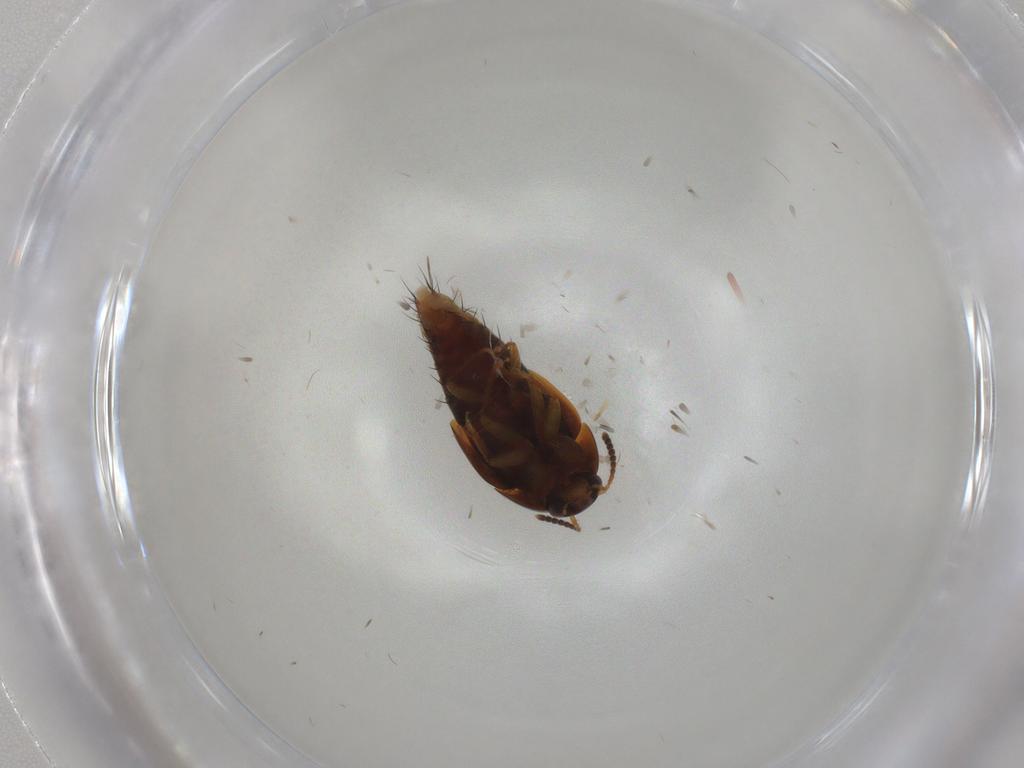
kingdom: Animalia
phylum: Arthropoda
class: Insecta
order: Coleoptera
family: Staphylinidae
